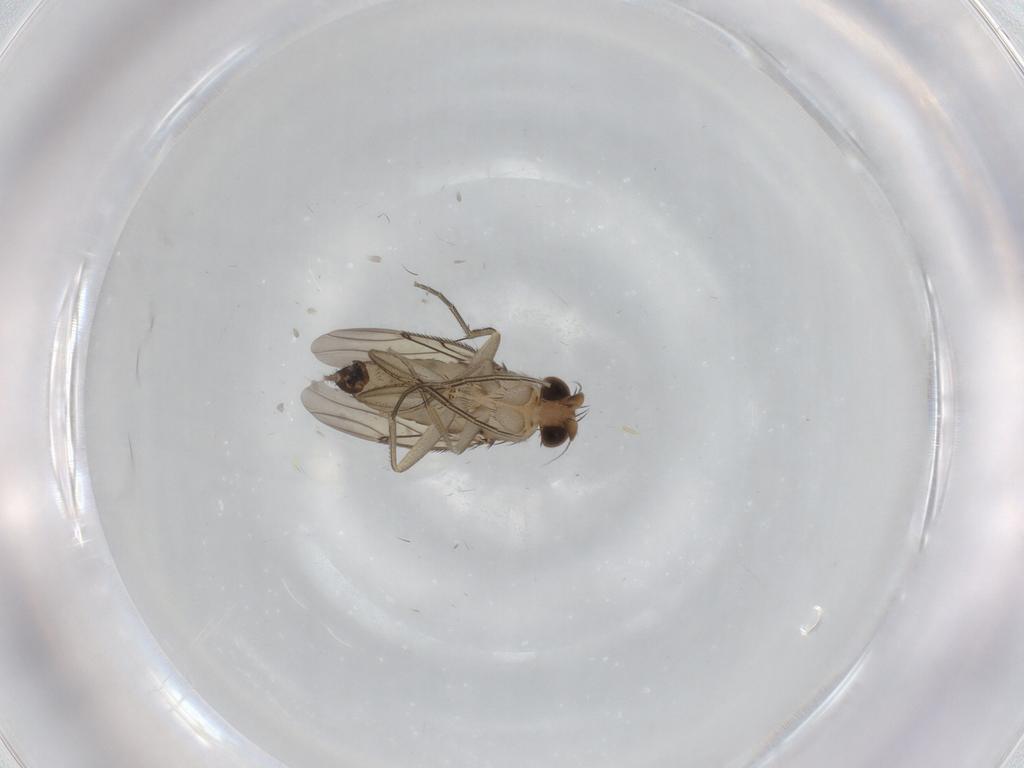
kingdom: Animalia
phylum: Arthropoda
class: Insecta
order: Diptera
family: Phoridae
